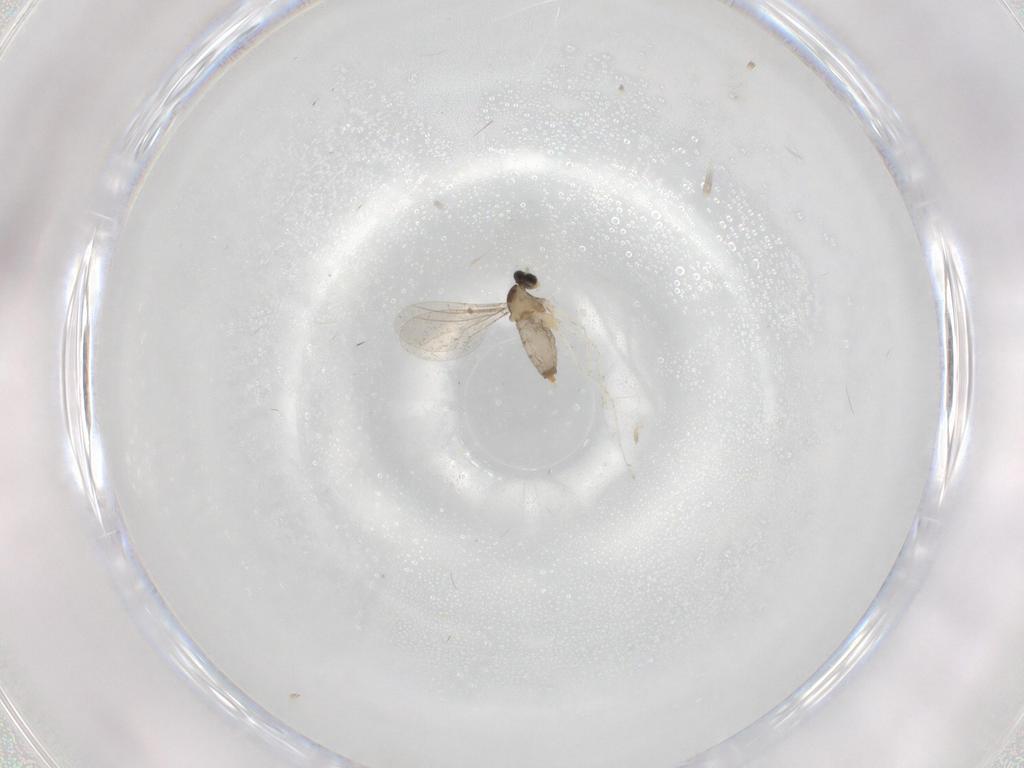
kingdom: Animalia
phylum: Arthropoda
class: Insecta
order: Diptera
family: Cecidomyiidae
